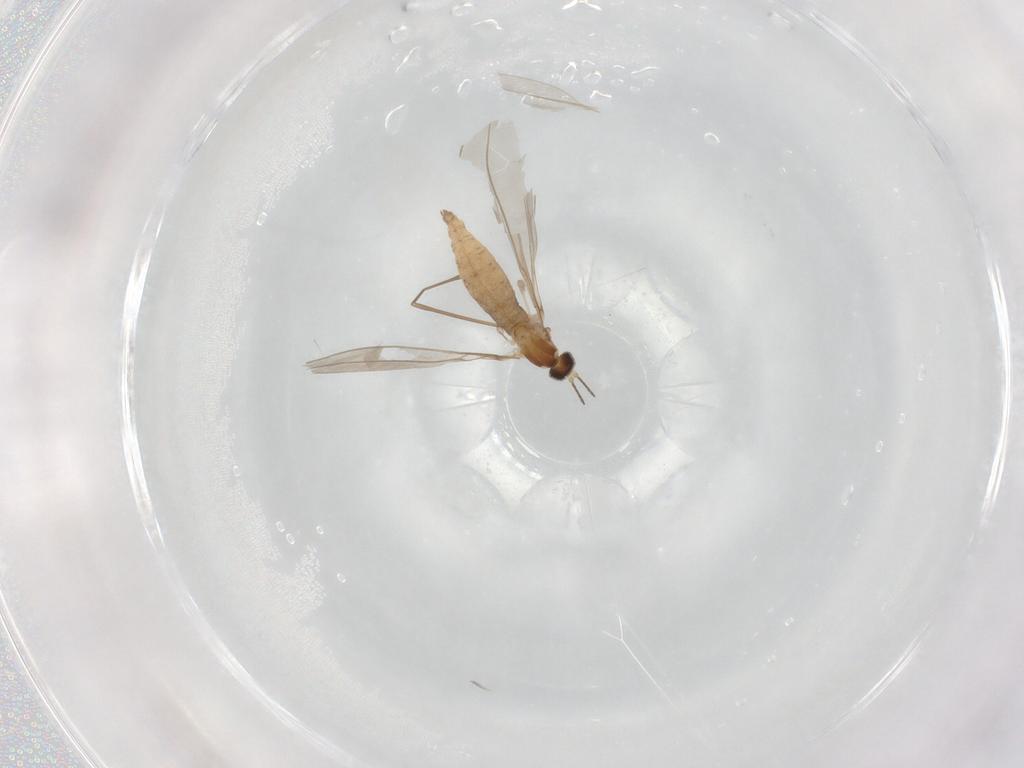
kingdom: Animalia
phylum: Arthropoda
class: Insecta
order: Diptera
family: Cecidomyiidae
